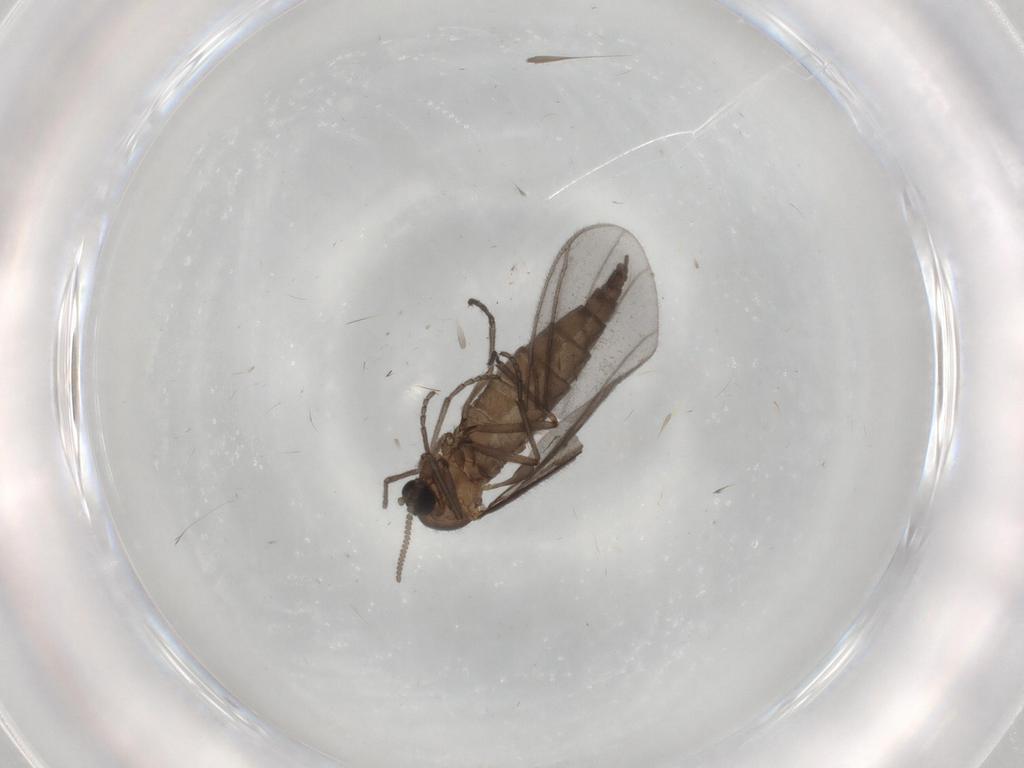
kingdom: Animalia
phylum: Arthropoda
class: Insecta
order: Diptera
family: Sciaridae
